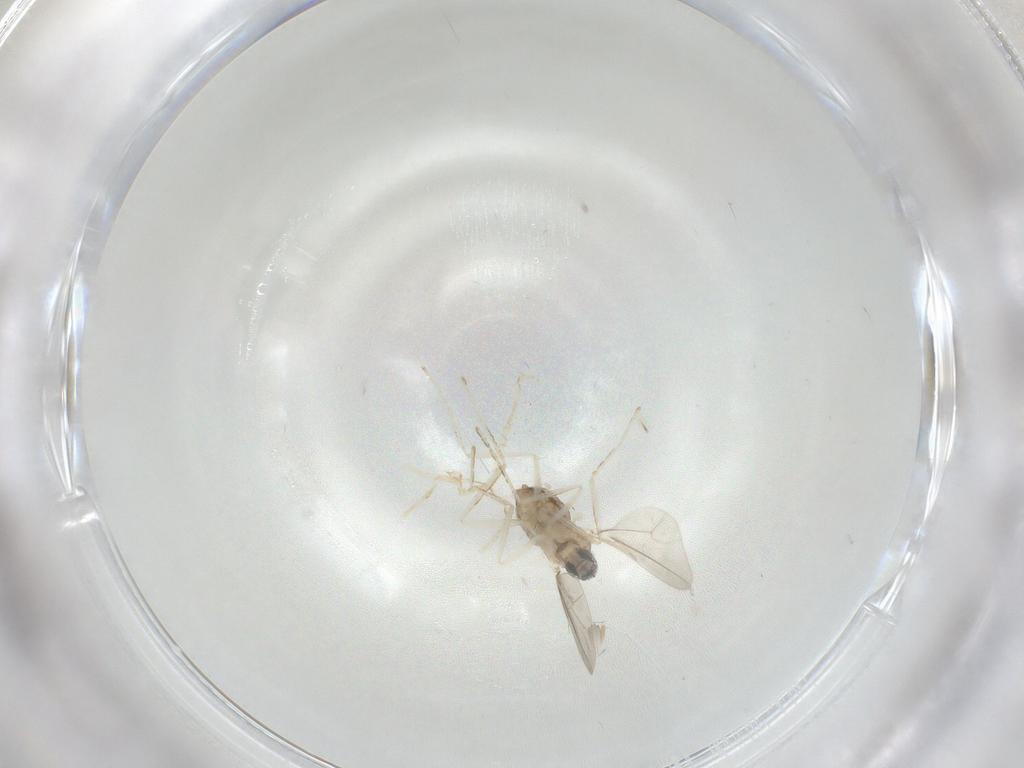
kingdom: Animalia
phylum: Arthropoda
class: Insecta
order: Diptera
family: Cecidomyiidae
